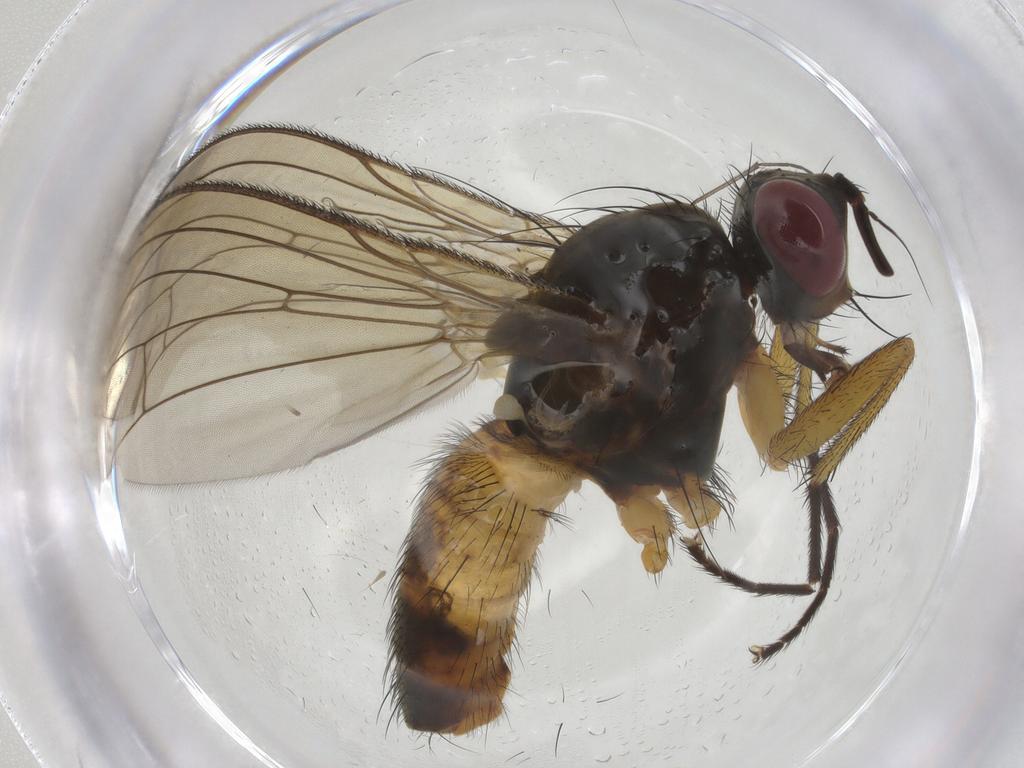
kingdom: Animalia
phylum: Arthropoda
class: Insecta
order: Diptera
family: Muscidae
